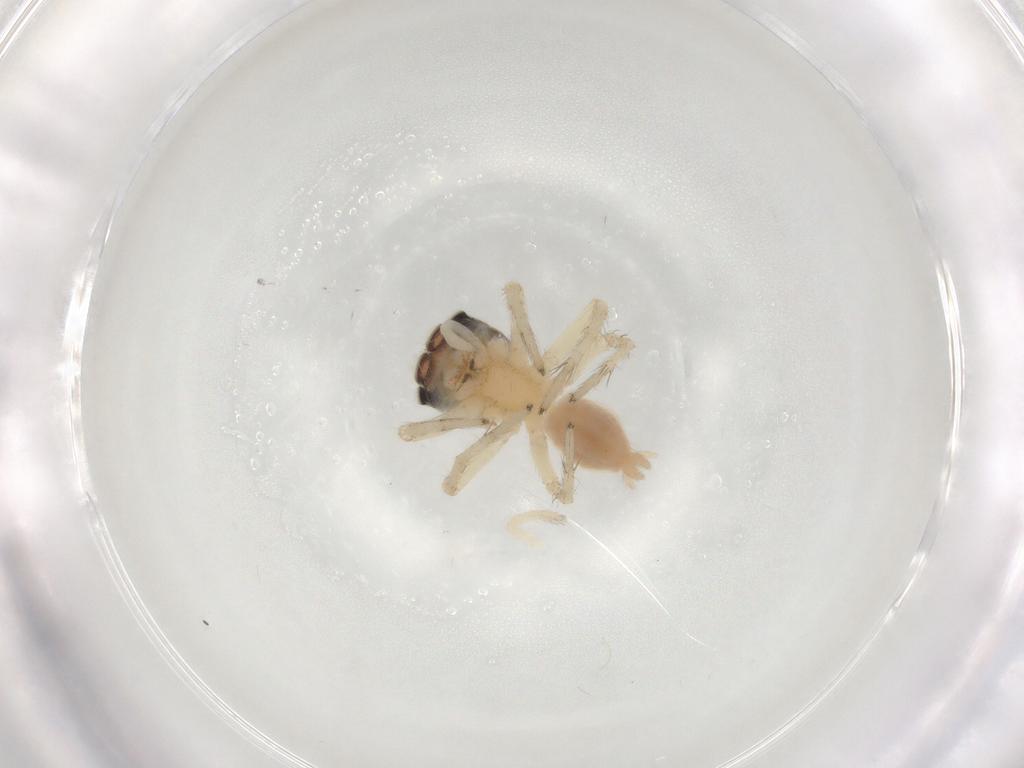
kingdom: Animalia
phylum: Arthropoda
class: Arachnida
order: Araneae
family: Salticidae
